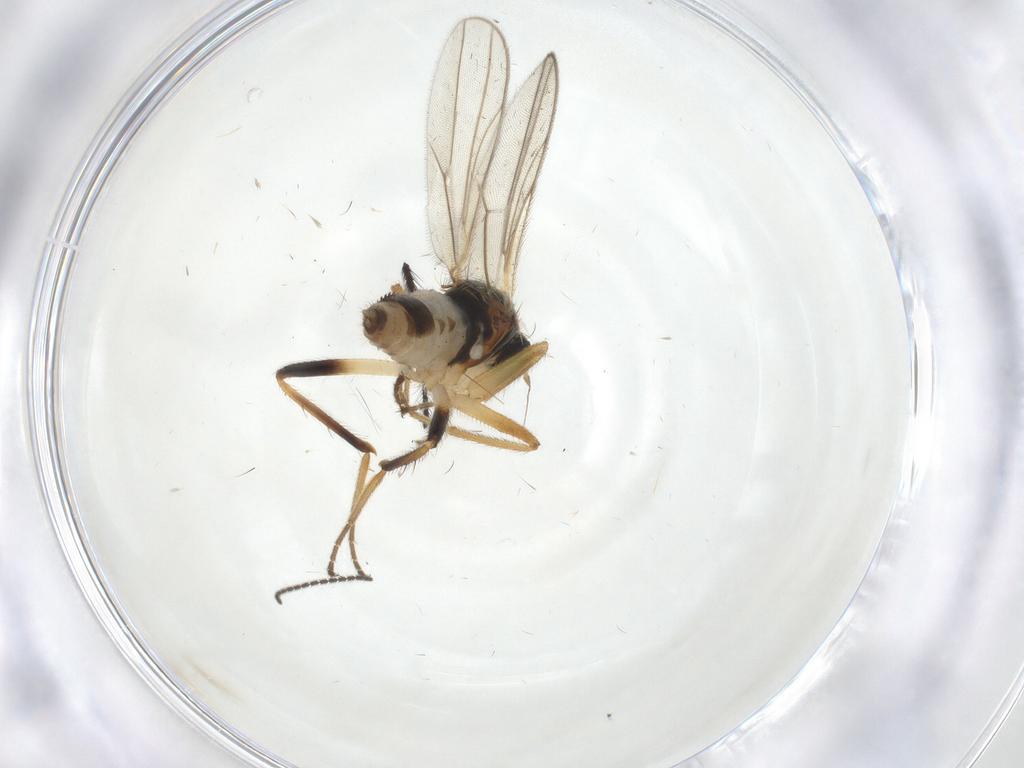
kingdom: Animalia
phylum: Arthropoda
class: Insecta
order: Diptera
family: Hybotidae
